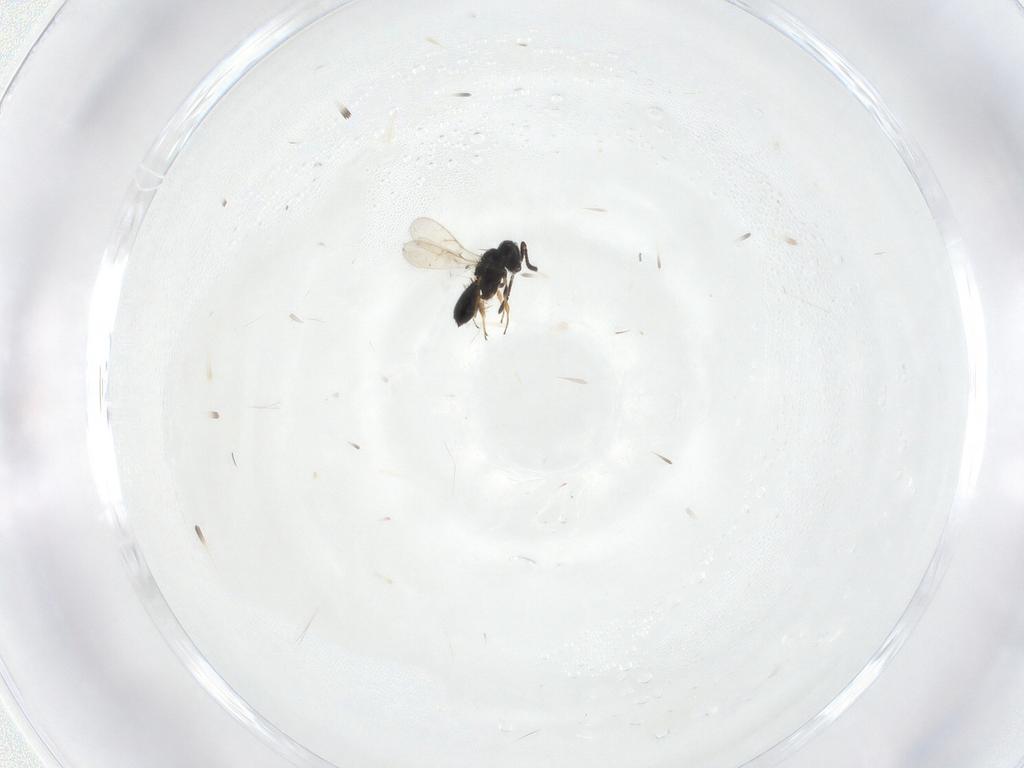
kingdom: Animalia
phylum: Arthropoda
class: Insecta
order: Hymenoptera
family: Scelionidae
